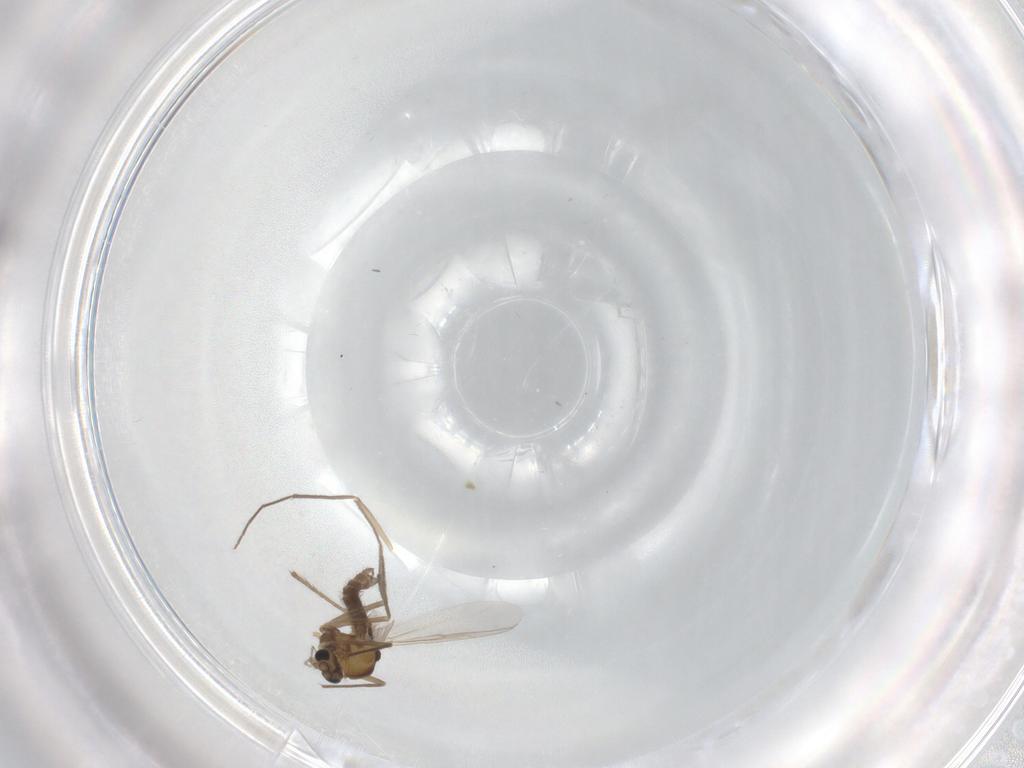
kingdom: Animalia
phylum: Arthropoda
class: Insecta
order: Diptera
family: Chironomidae
